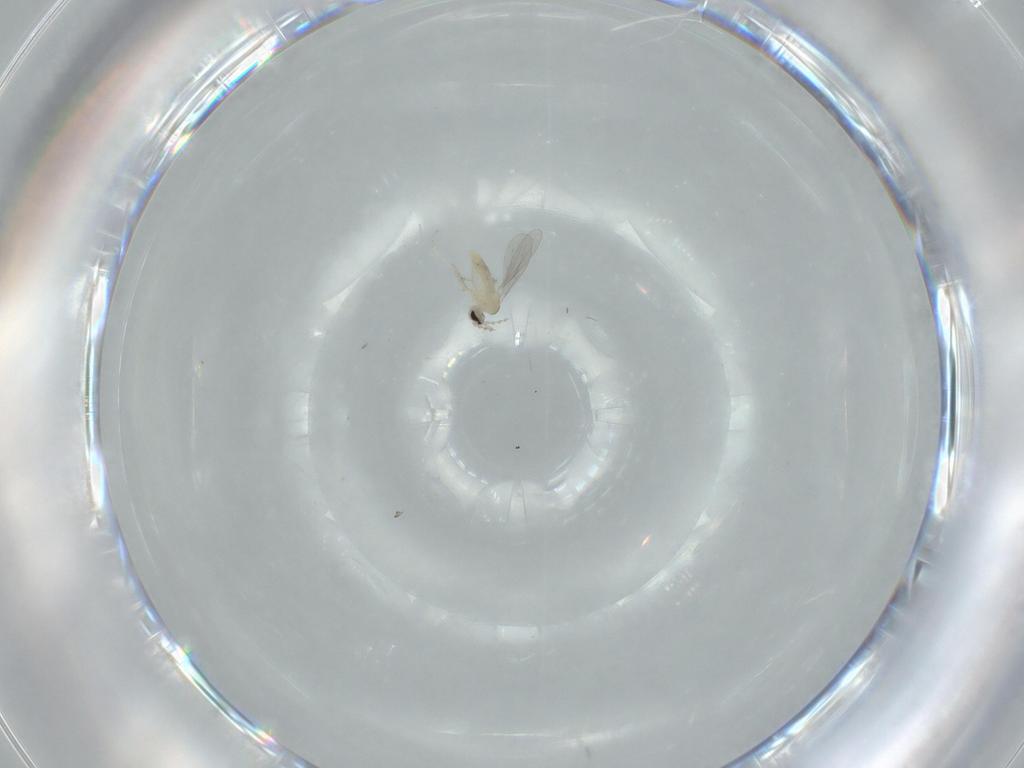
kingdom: Animalia
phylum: Arthropoda
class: Insecta
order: Diptera
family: Cecidomyiidae
